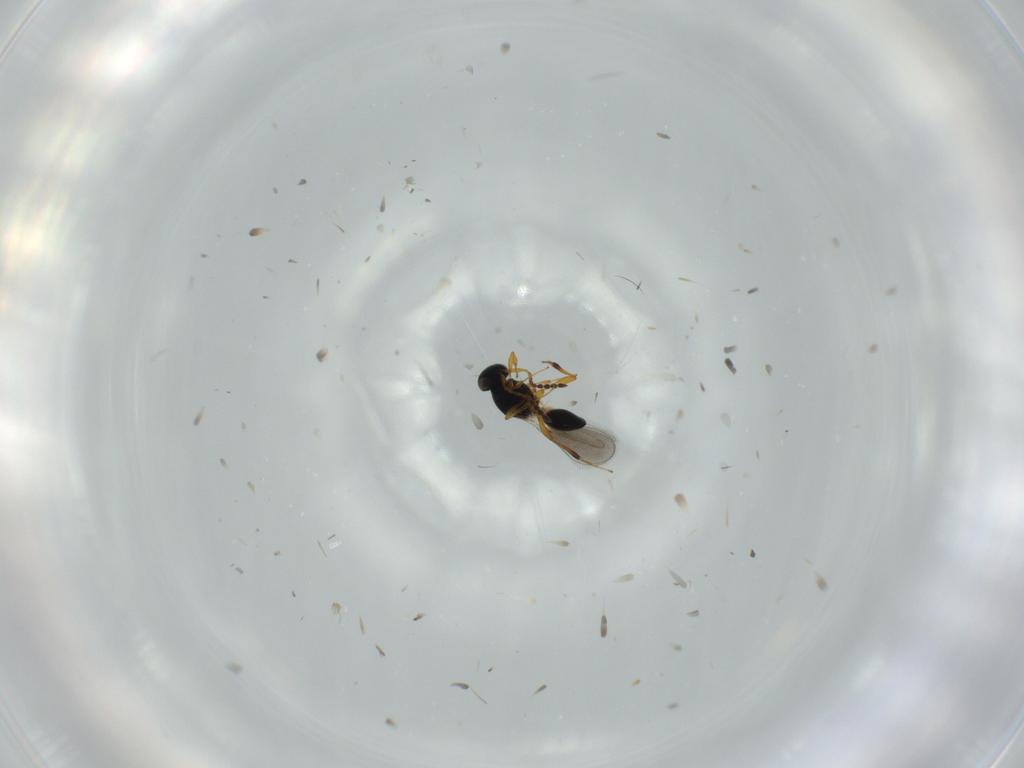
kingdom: Animalia
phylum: Arthropoda
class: Insecta
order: Hymenoptera
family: Platygastridae
